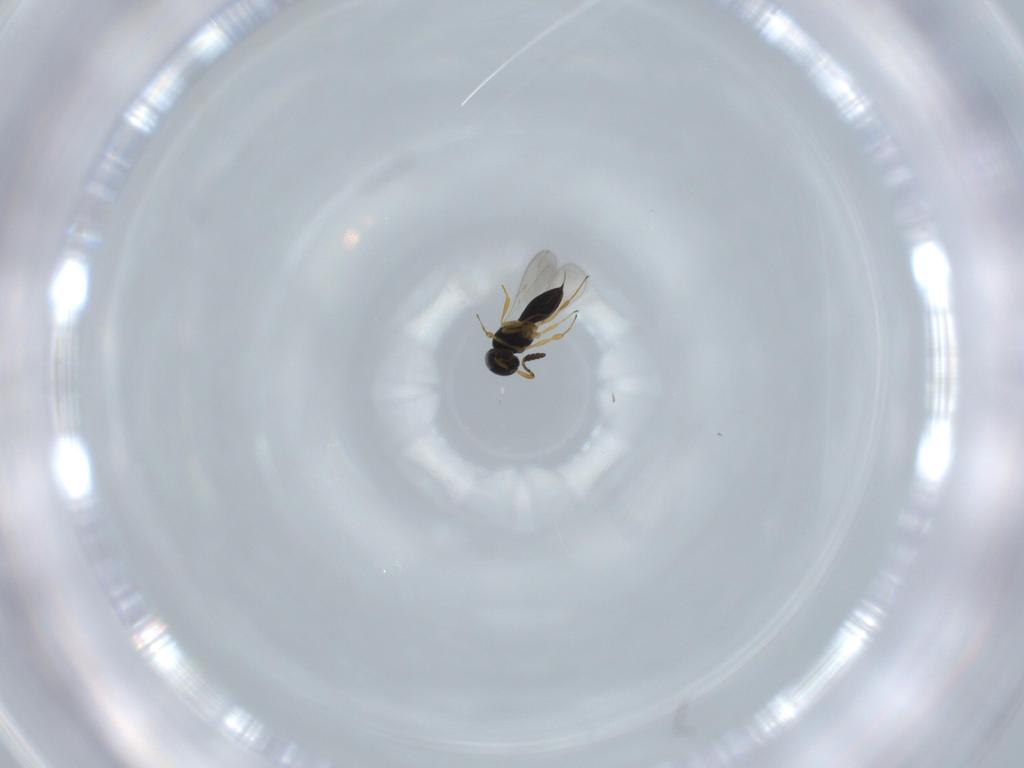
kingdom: Animalia
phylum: Arthropoda
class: Insecta
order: Hymenoptera
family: Scelionidae
